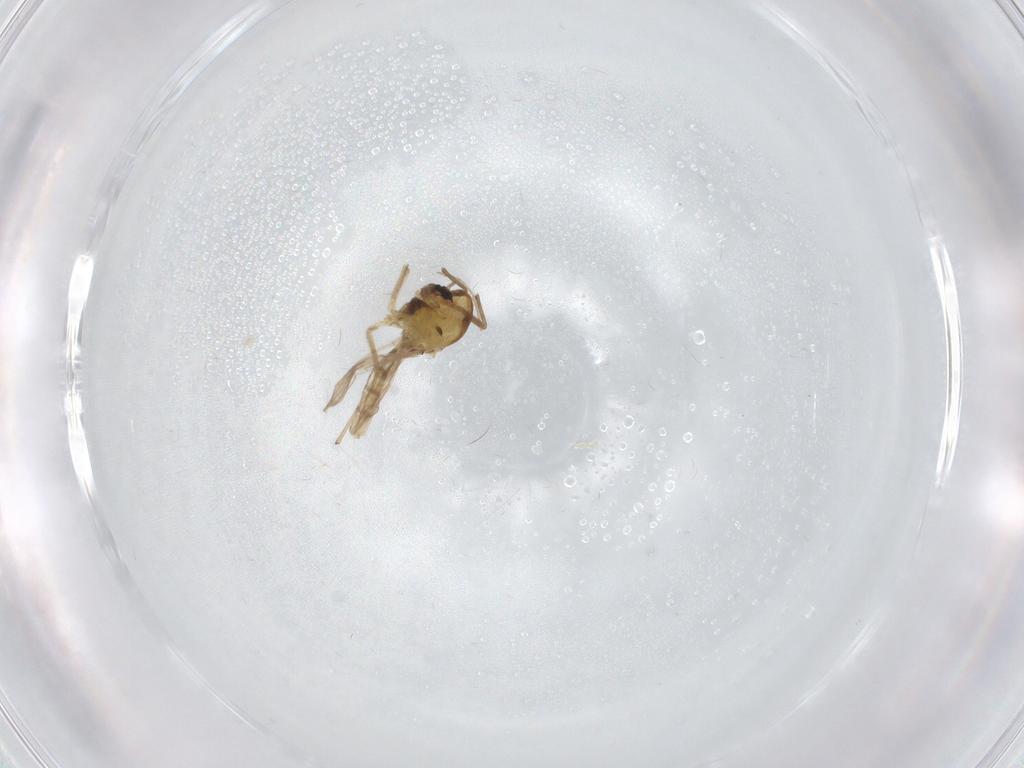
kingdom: Animalia
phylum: Arthropoda
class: Insecta
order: Diptera
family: Chironomidae
